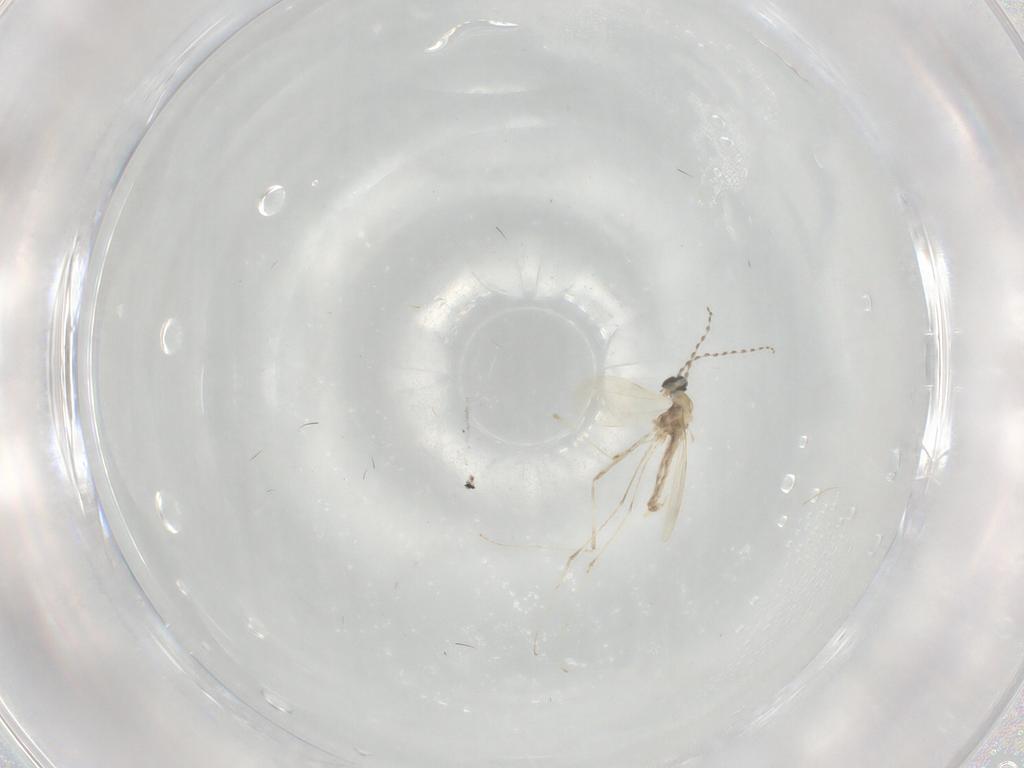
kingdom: Animalia
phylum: Arthropoda
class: Insecta
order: Diptera
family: Cecidomyiidae
